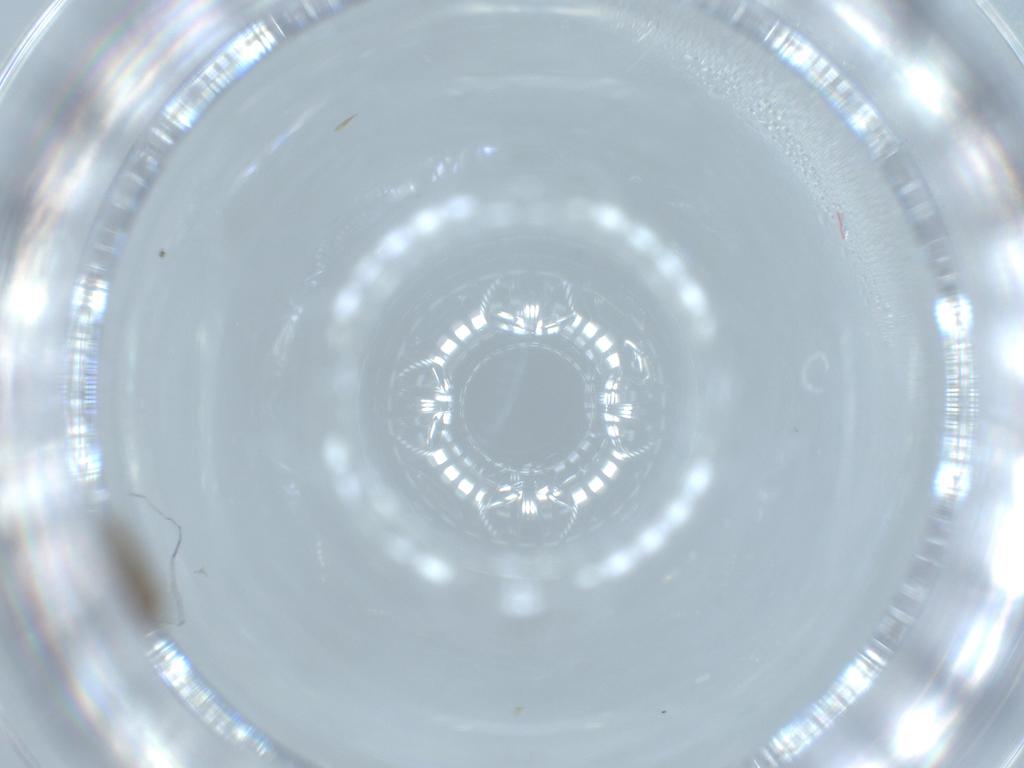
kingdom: Animalia
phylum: Arthropoda
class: Insecta
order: Diptera
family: Chironomidae
